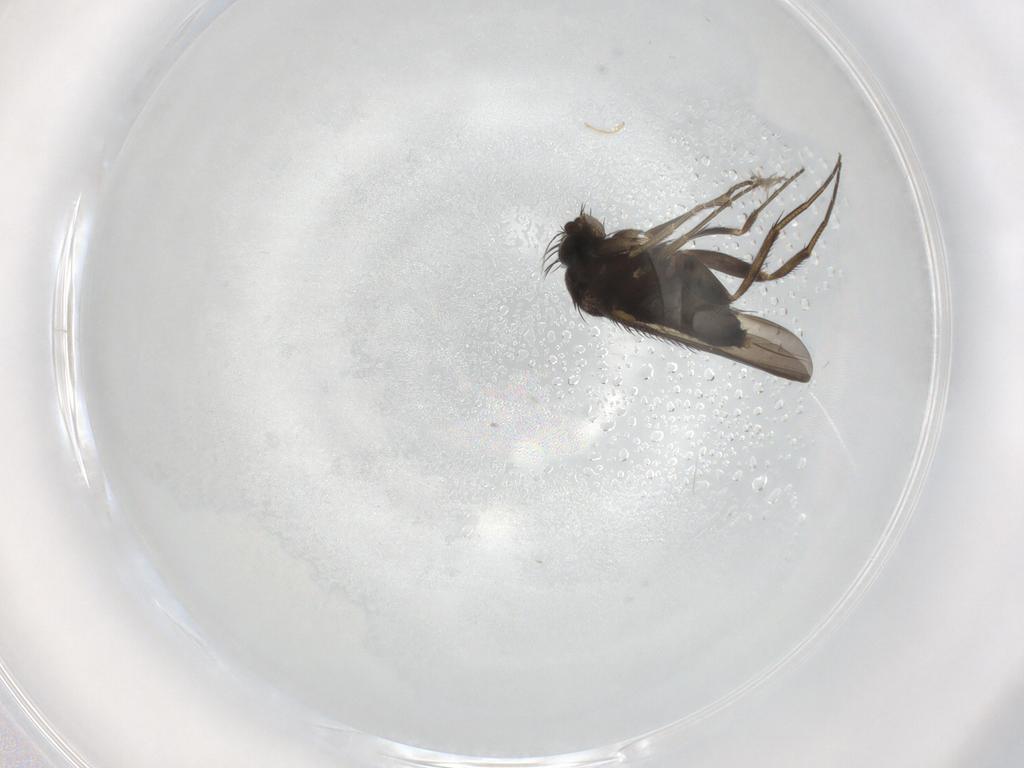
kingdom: Animalia
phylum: Arthropoda
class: Insecta
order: Diptera
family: Phoridae
